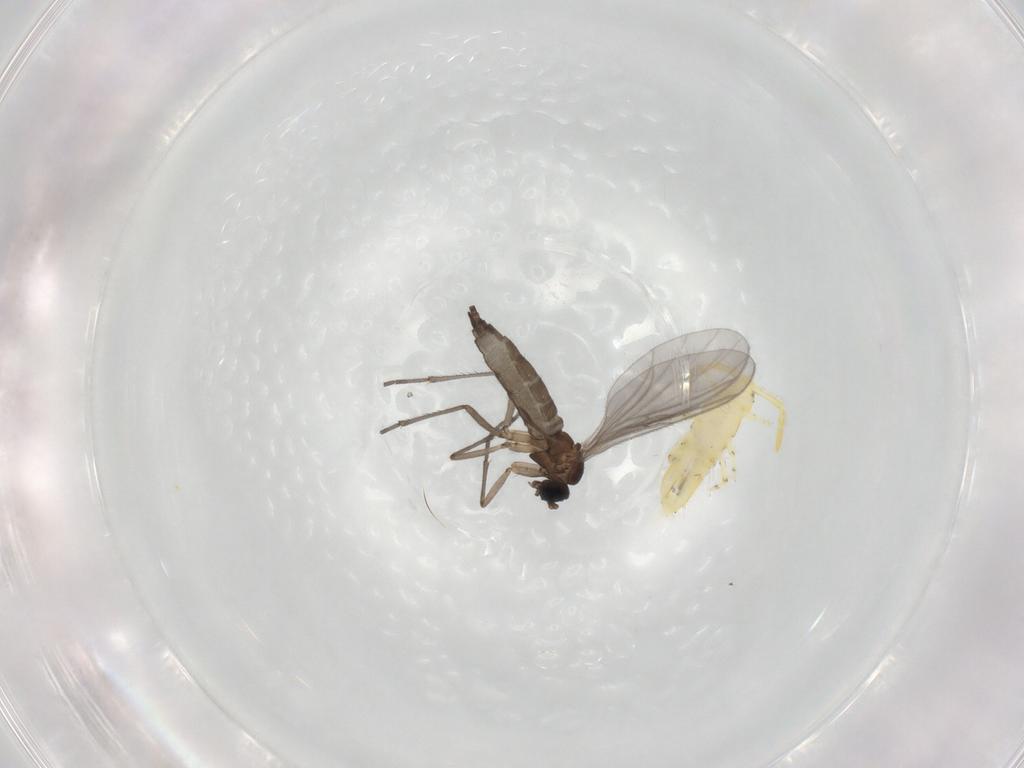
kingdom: Animalia
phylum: Arthropoda
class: Insecta
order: Diptera
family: Sciaridae
